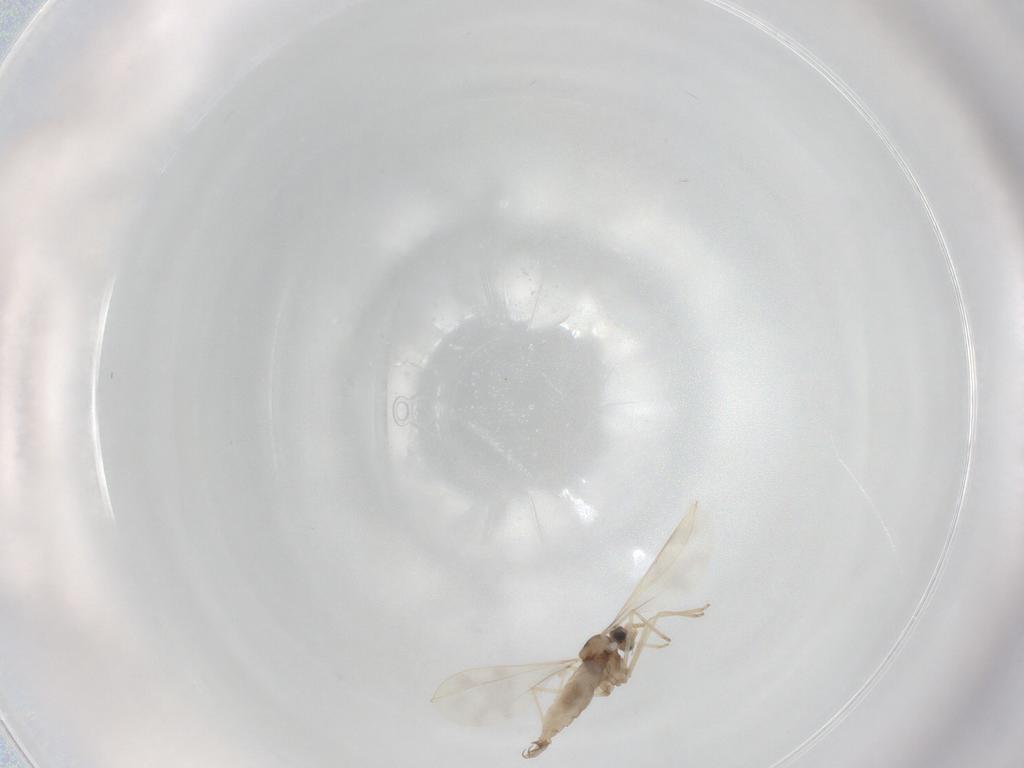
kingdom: Animalia
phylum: Arthropoda
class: Insecta
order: Diptera
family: Cecidomyiidae
